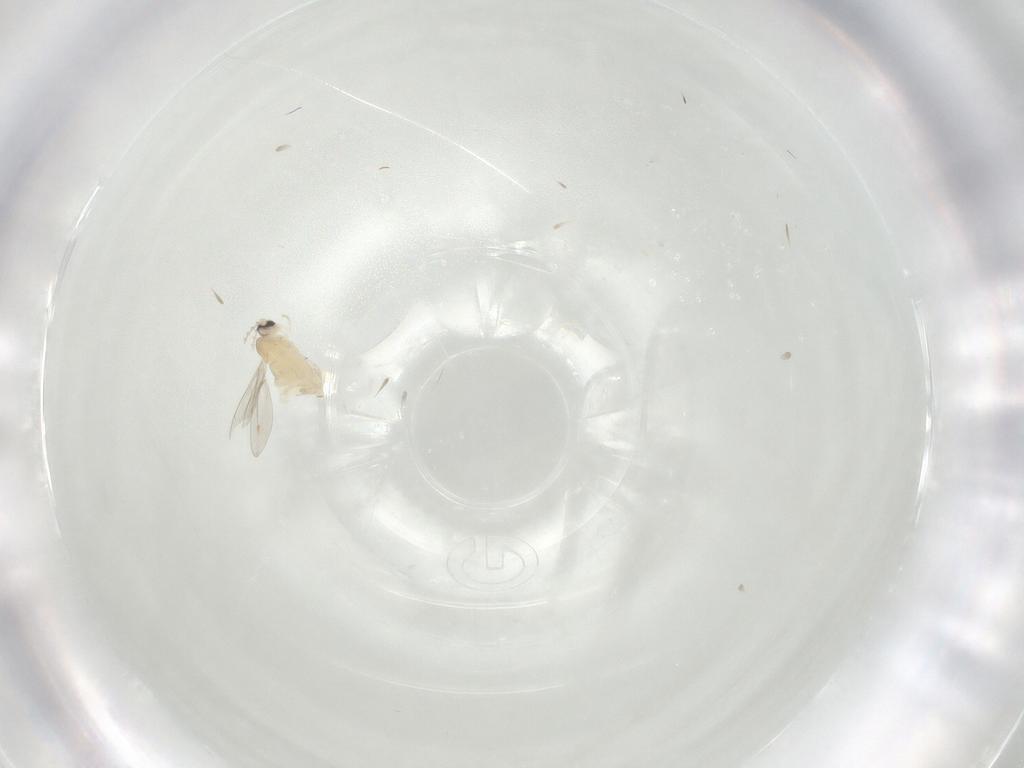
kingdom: Animalia
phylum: Arthropoda
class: Insecta
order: Diptera
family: Cecidomyiidae
